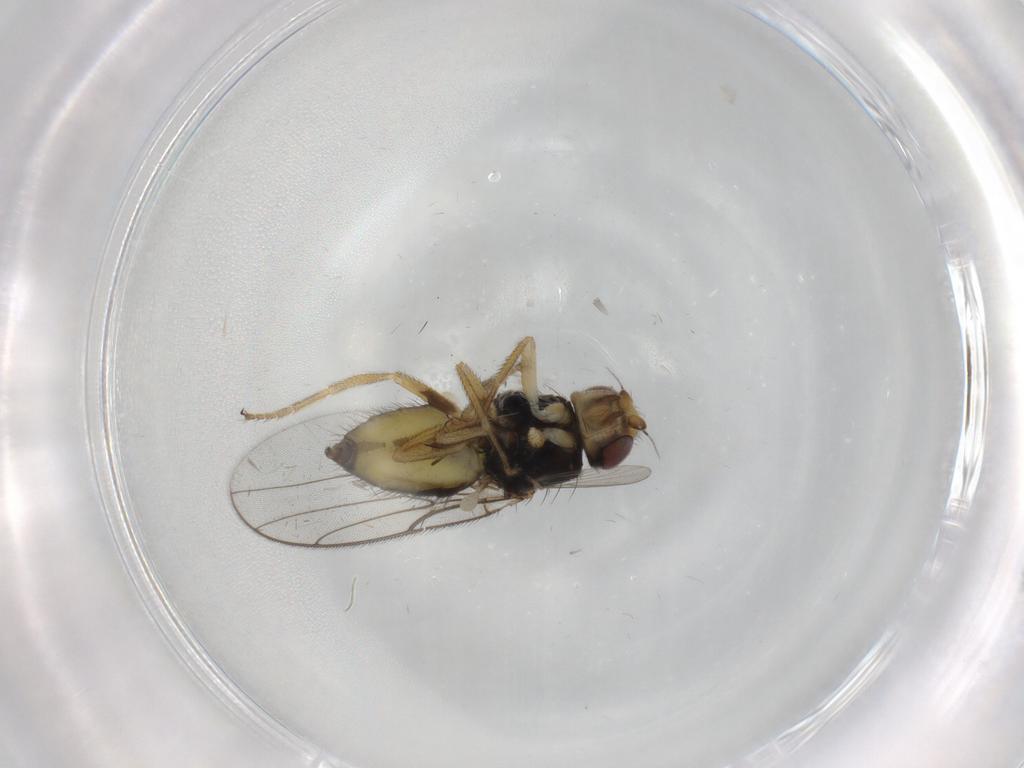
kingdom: Animalia
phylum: Arthropoda
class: Insecta
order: Diptera
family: Chloropidae
